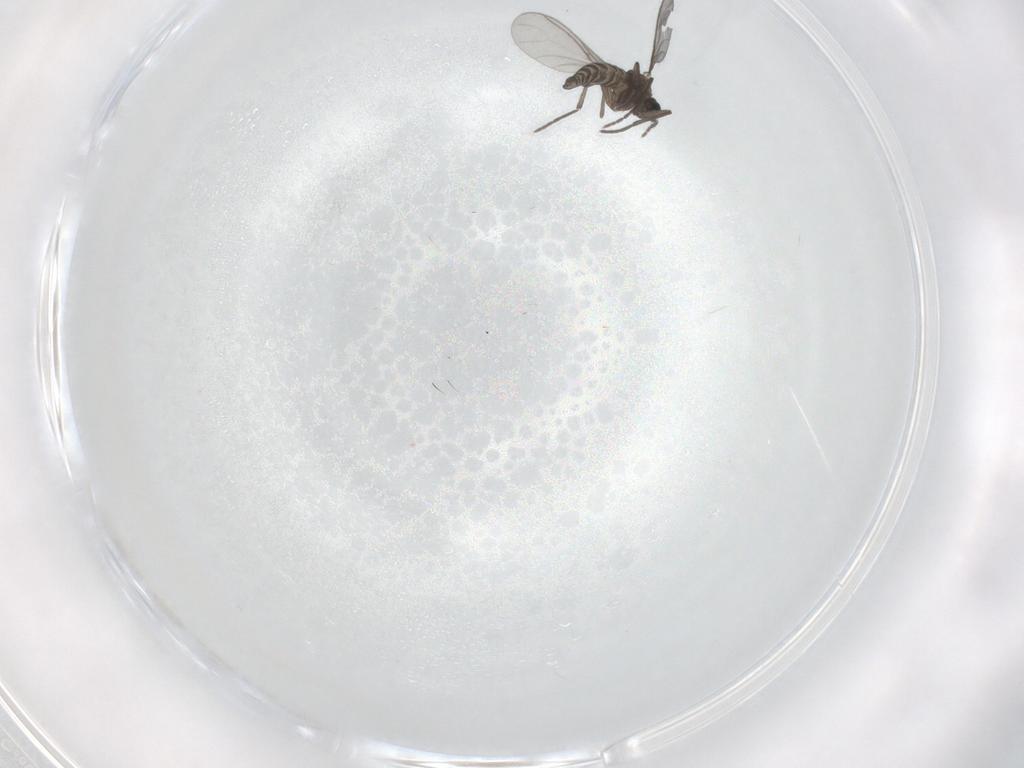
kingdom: Animalia
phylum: Arthropoda
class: Insecta
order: Diptera
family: Sciaridae
